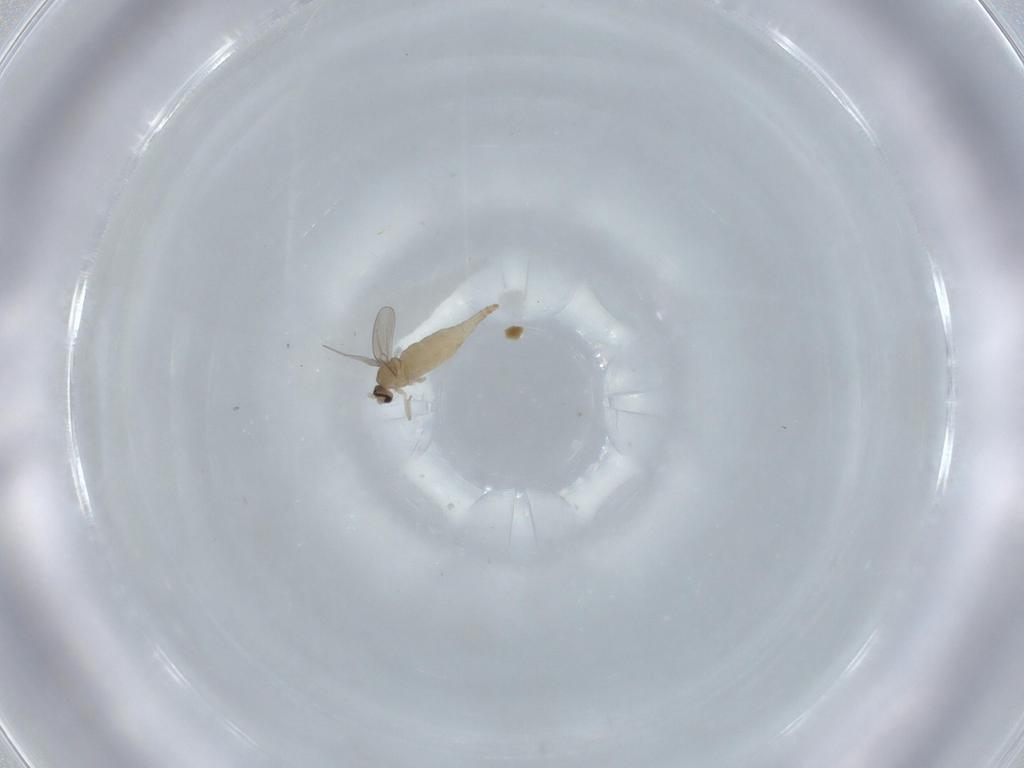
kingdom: Animalia
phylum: Arthropoda
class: Insecta
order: Diptera
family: Cecidomyiidae
